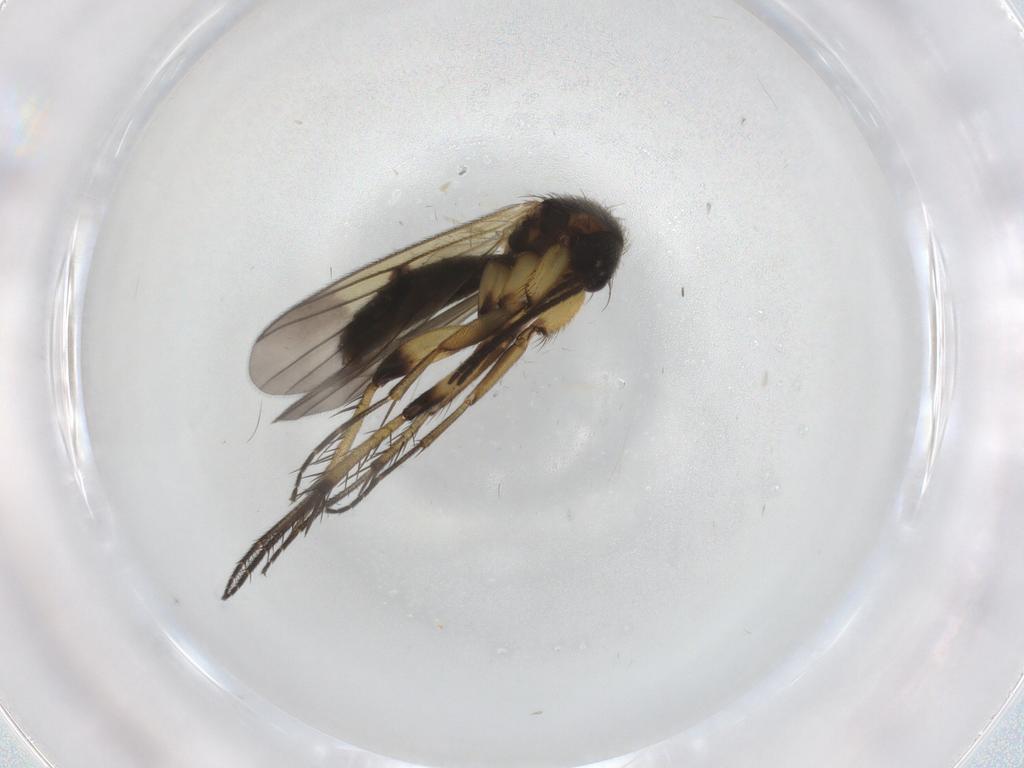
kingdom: Animalia
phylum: Arthropoda
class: Insecta
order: Diptera
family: Mycetophilidae
